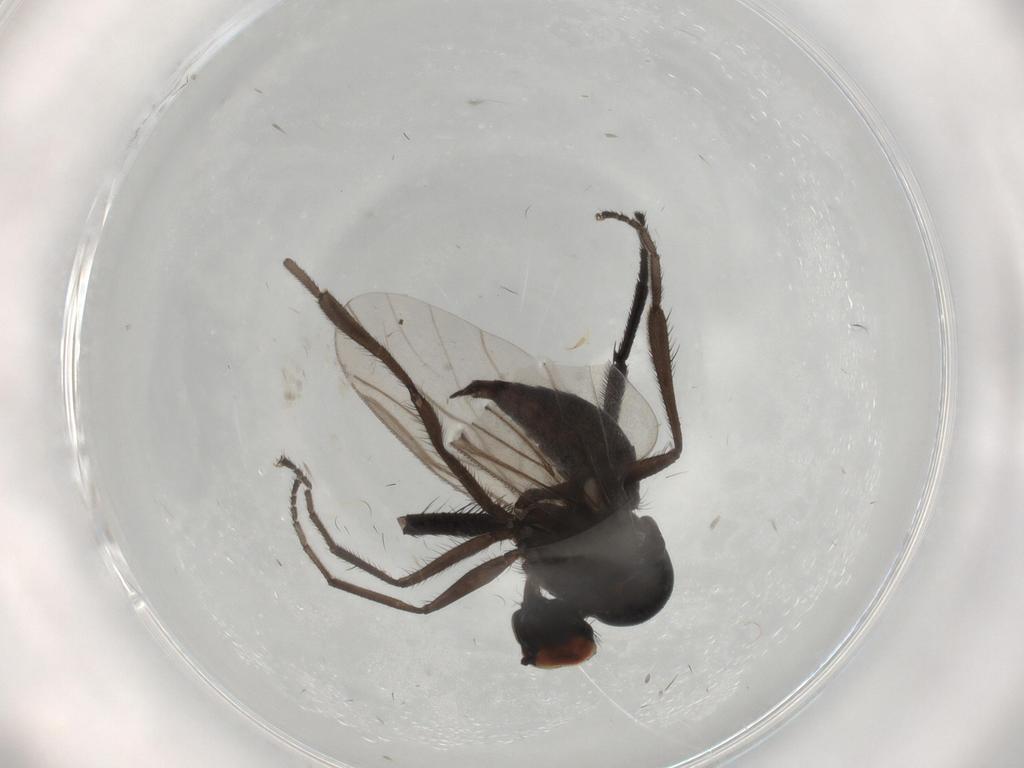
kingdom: Animalia
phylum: Arthropoda
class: Insecta
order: Diptera
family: Hybotidae
